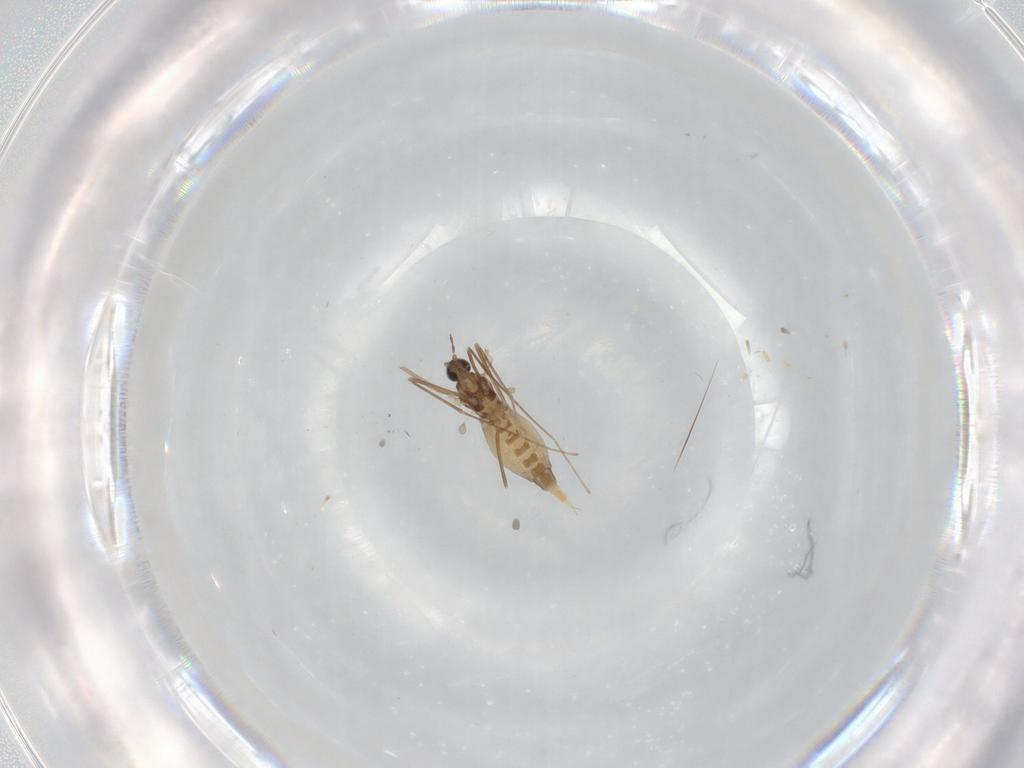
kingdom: Animalia
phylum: Arthropoda
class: Insecta
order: Diptera
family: Cecidomyiidae
